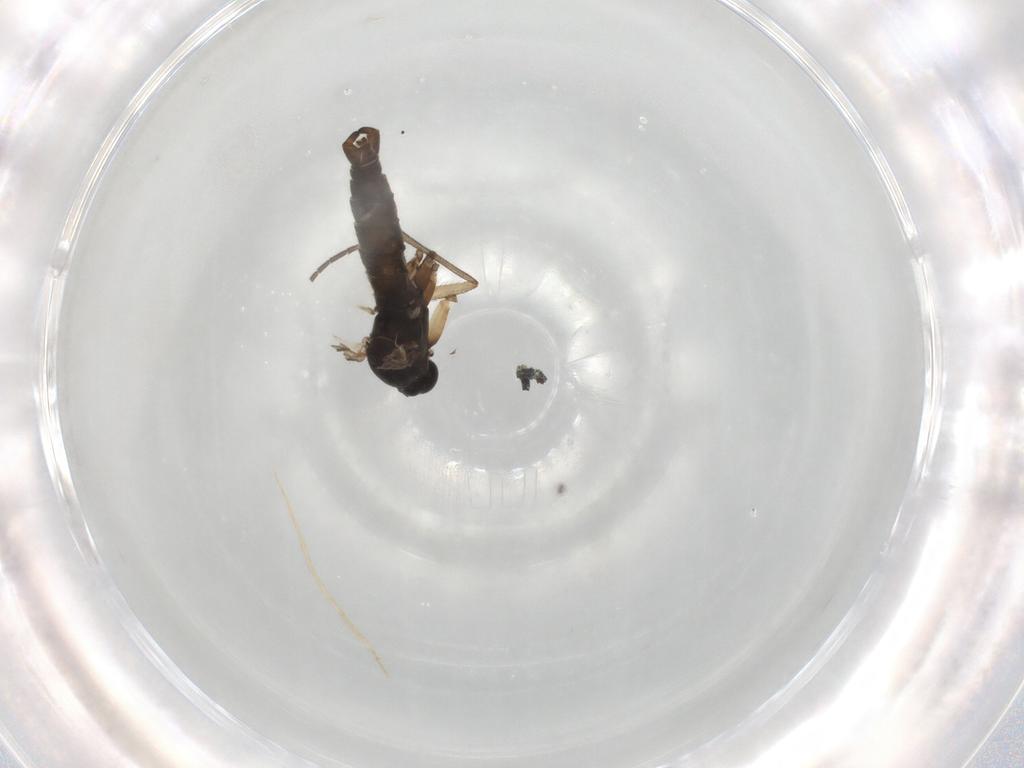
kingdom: Animalia
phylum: Arthropoda
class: Insecta
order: Diptera
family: Sciaridae
